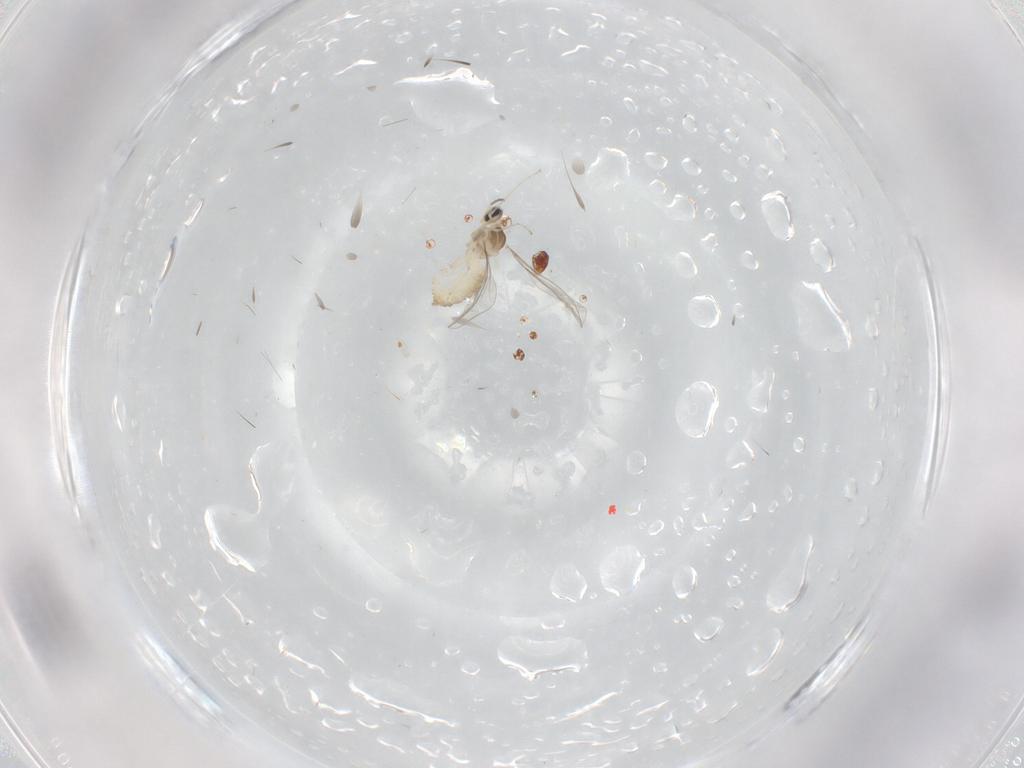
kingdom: Animalia
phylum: Arthropoda
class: Insecta
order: Diptera
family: Cecidomyiidae
